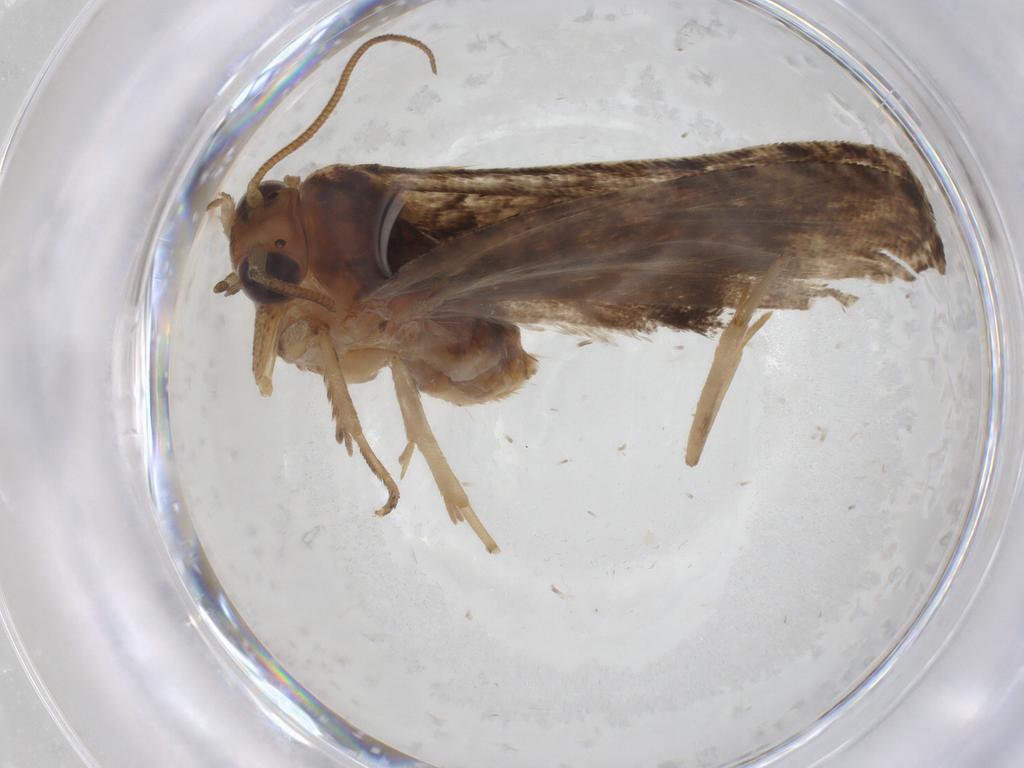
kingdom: Animalia
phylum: Arthropoda
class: Insecta
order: Lepidoptera
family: Tortricidae
